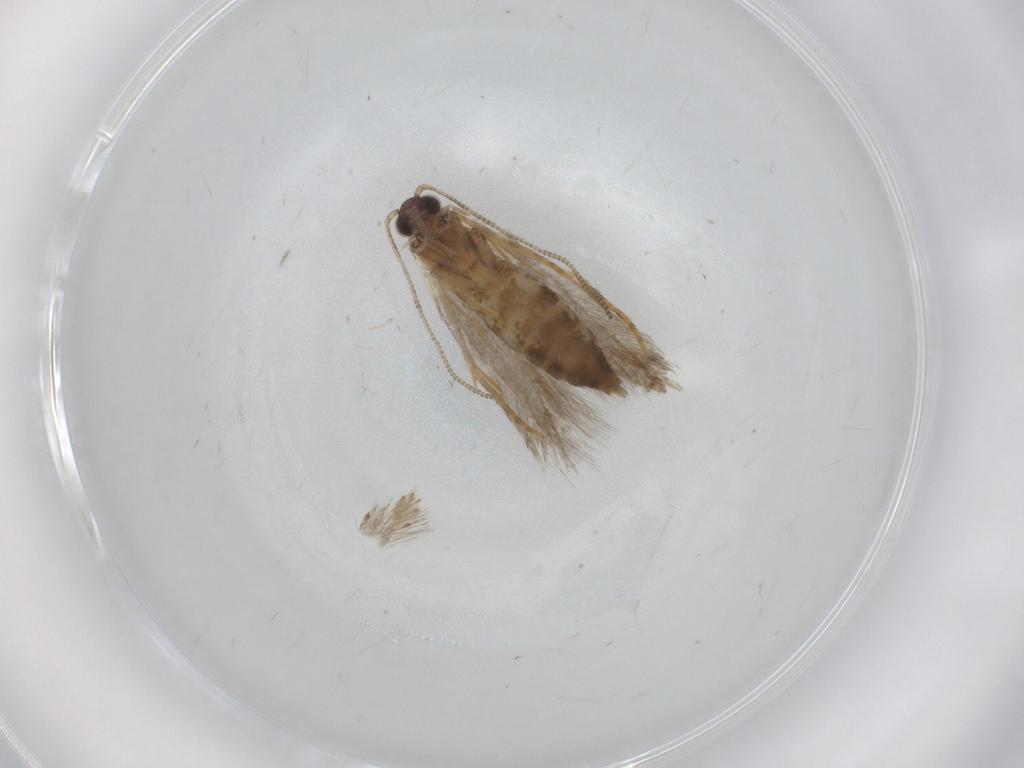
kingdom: Animalia
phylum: Arthropoda
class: Insecta
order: Lepidoptera
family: Tineidae
